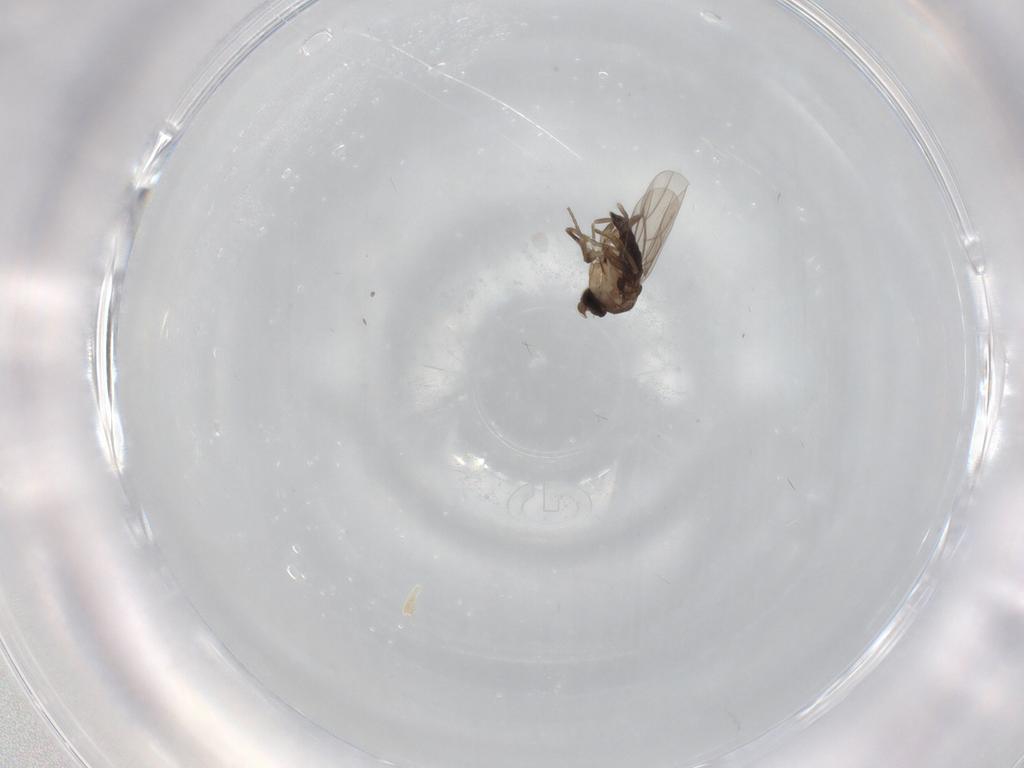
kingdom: Animalia
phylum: Arthropoda
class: Insecta
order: Diptera
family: Phoridae
